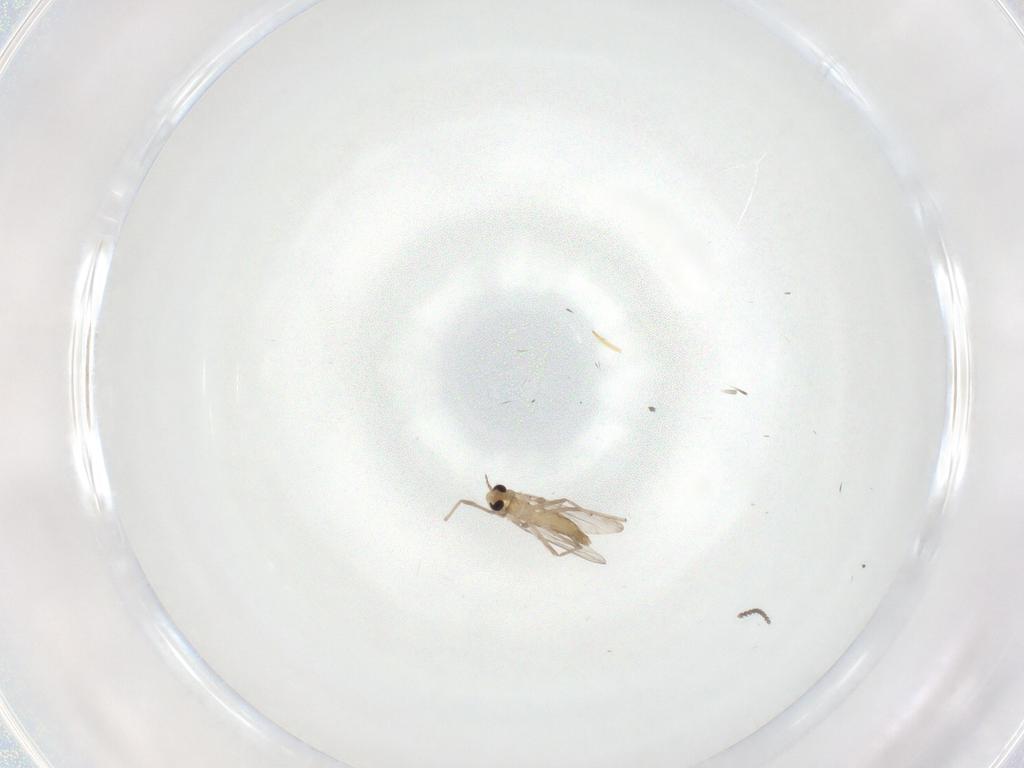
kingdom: Animalia
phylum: Arthropoda
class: Insecta
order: Diptera
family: Chironomidae
